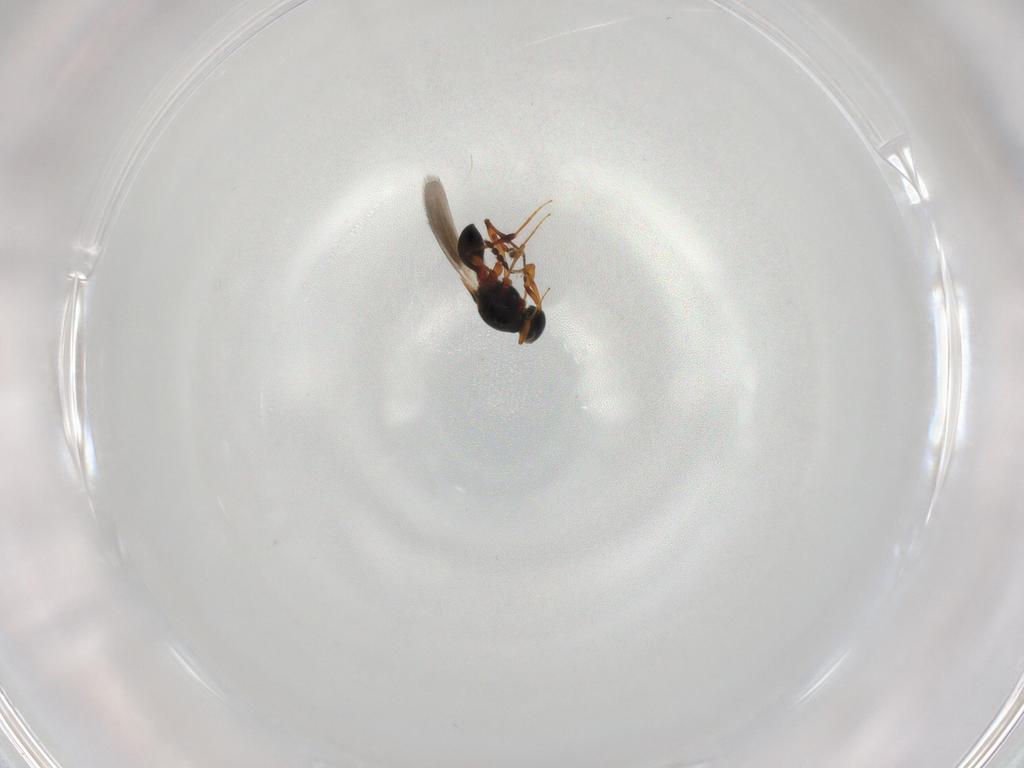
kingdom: Animalia
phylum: Arthropoda
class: Insecta
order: Hymenoptera
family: Platygastridae
